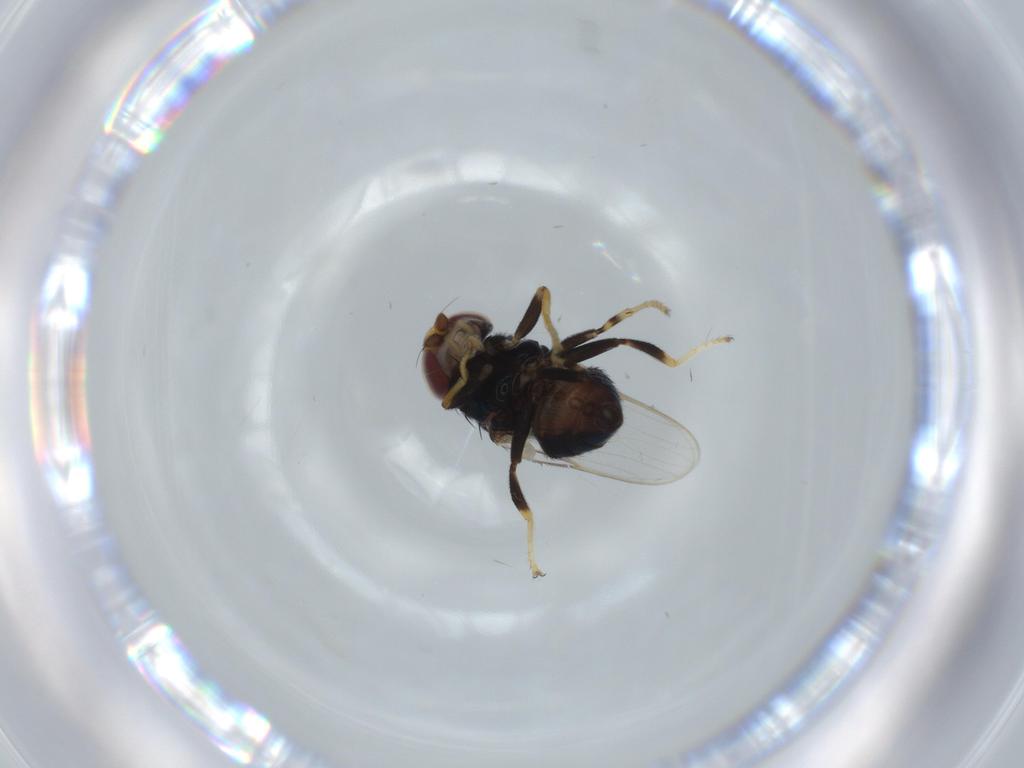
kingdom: Animalia
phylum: Arthropoda
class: Insecta
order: Diptera
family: Chloropidae
